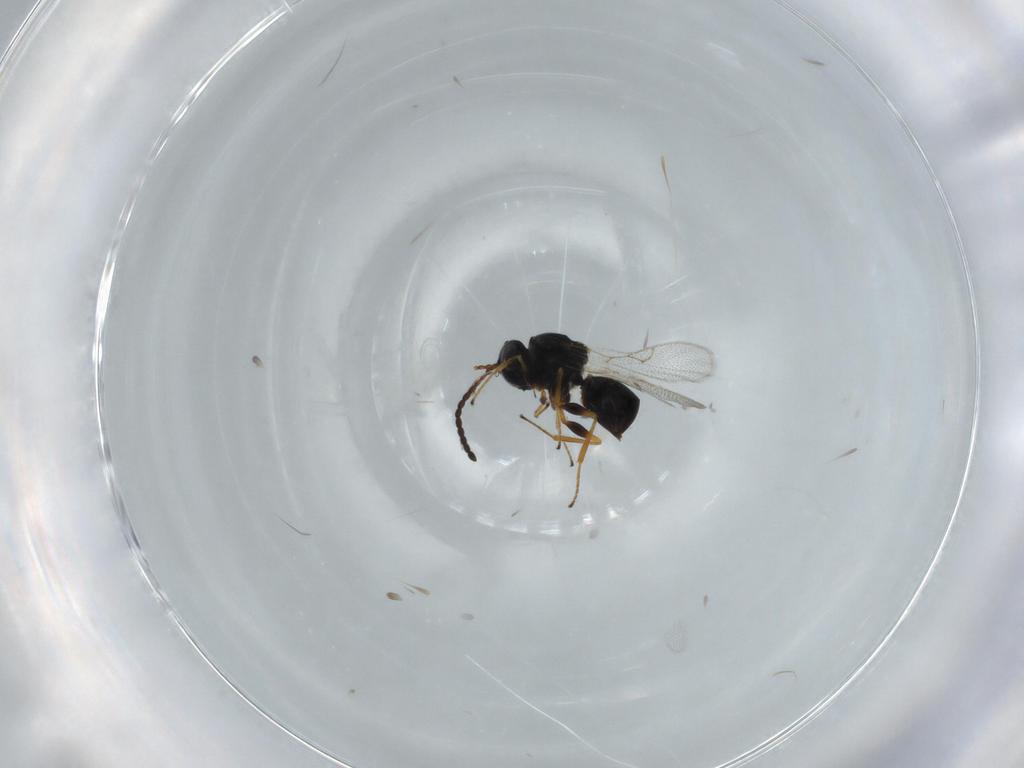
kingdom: Animalia
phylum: Arthropoda
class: Insecta
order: Hymenoptera
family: Figitidae
